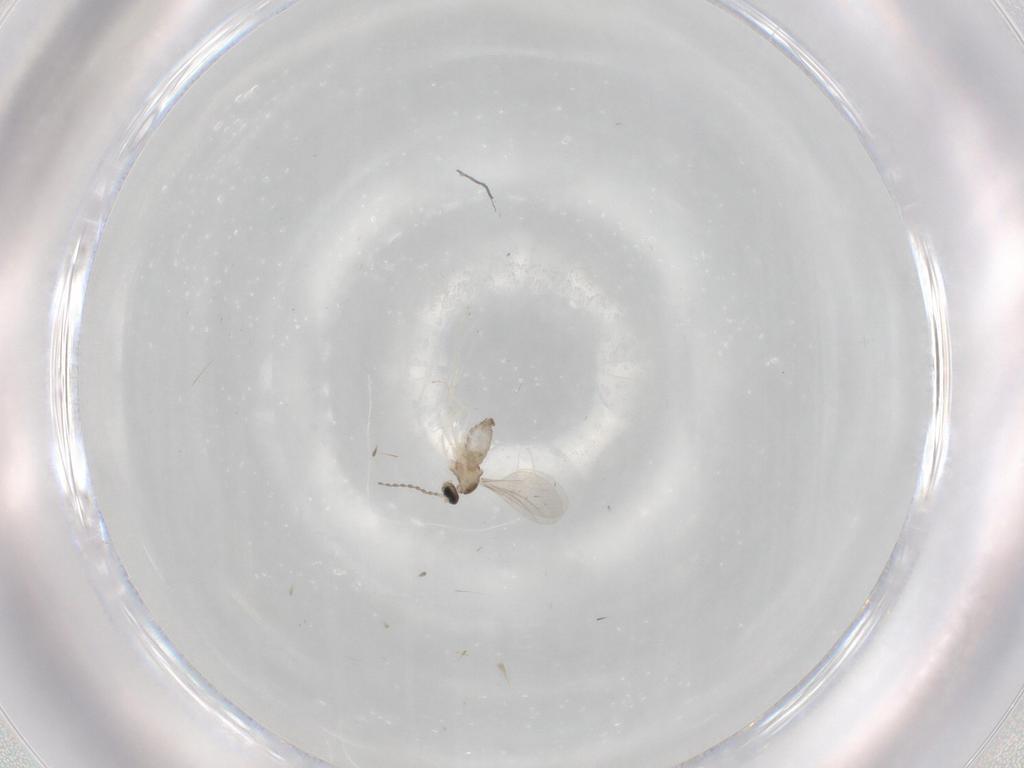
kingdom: Animalia
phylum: Arthropoda
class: Insecta
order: Diptera
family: Cecidomyiidae
